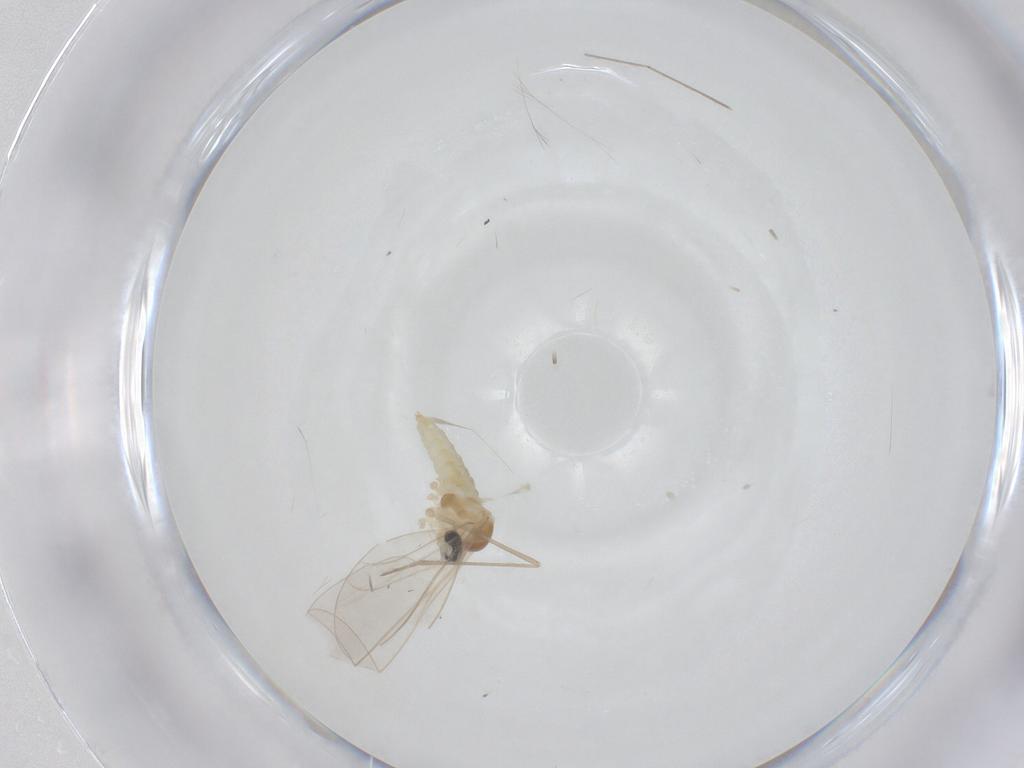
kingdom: Animalia
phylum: Arthropoda
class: Insecta
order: Diptera
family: Cecidomyiidae
